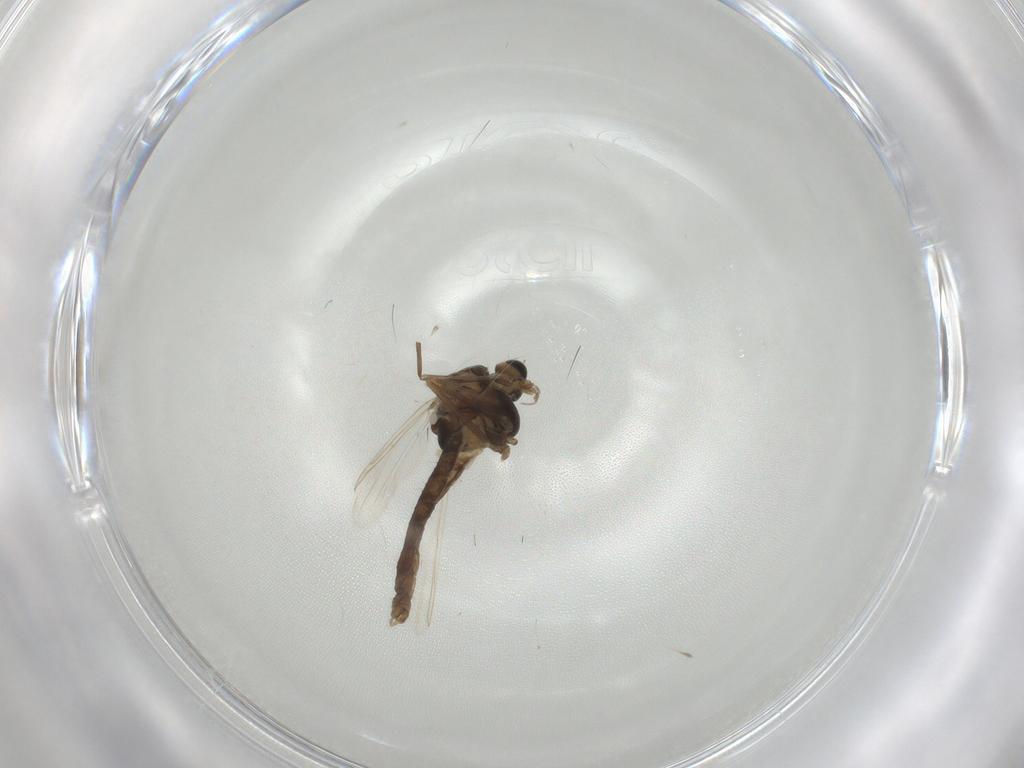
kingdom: Animalia
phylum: Arthropoda
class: Insecta
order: Diptera
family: Chironomidae
